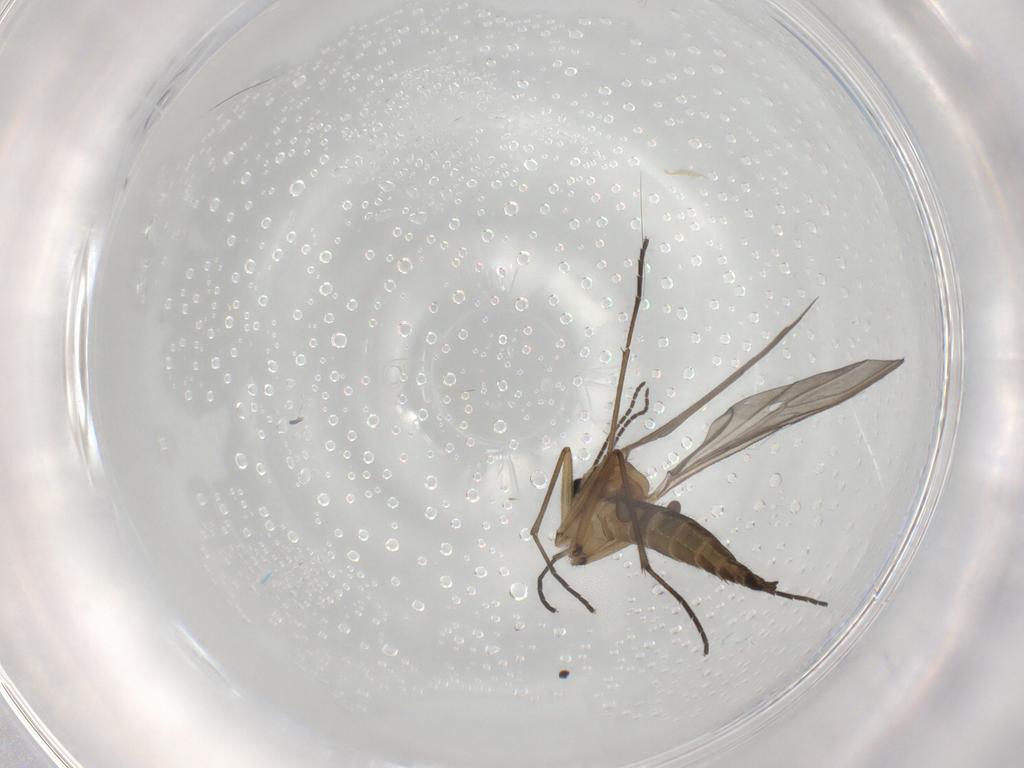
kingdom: Animalia
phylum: Arthropoda
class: Insecta
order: Diptera
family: Sciaridae
